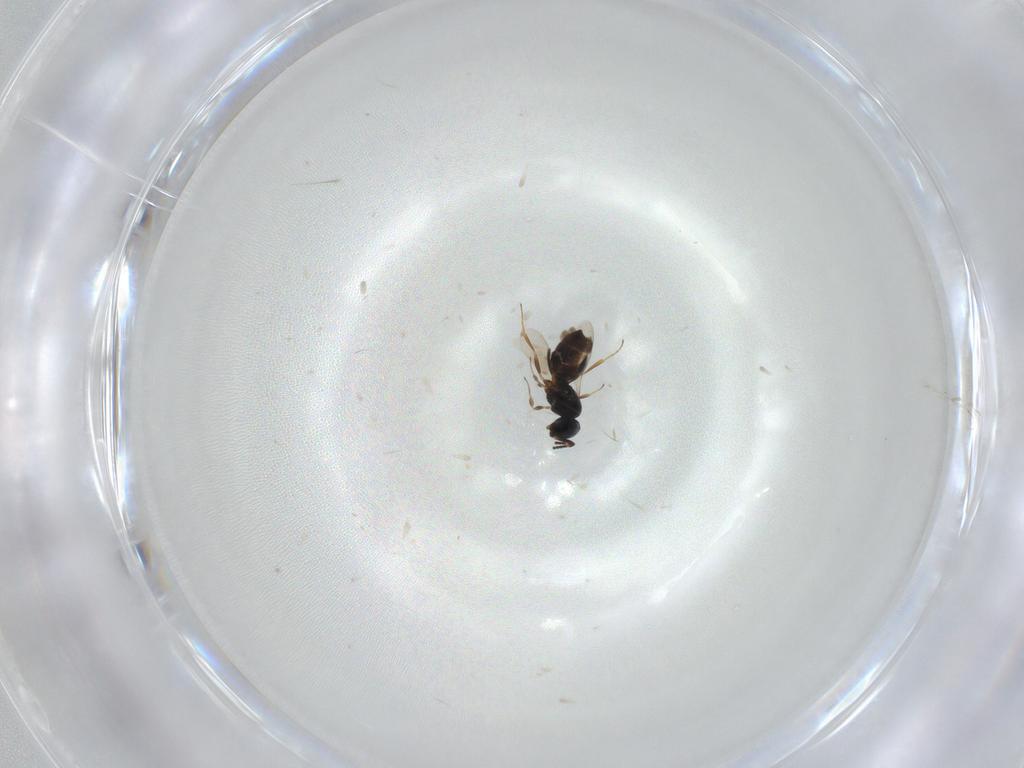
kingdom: Animalia
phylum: Arthropoda
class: Insecta
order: Hymenoptera
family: Scelionidae
